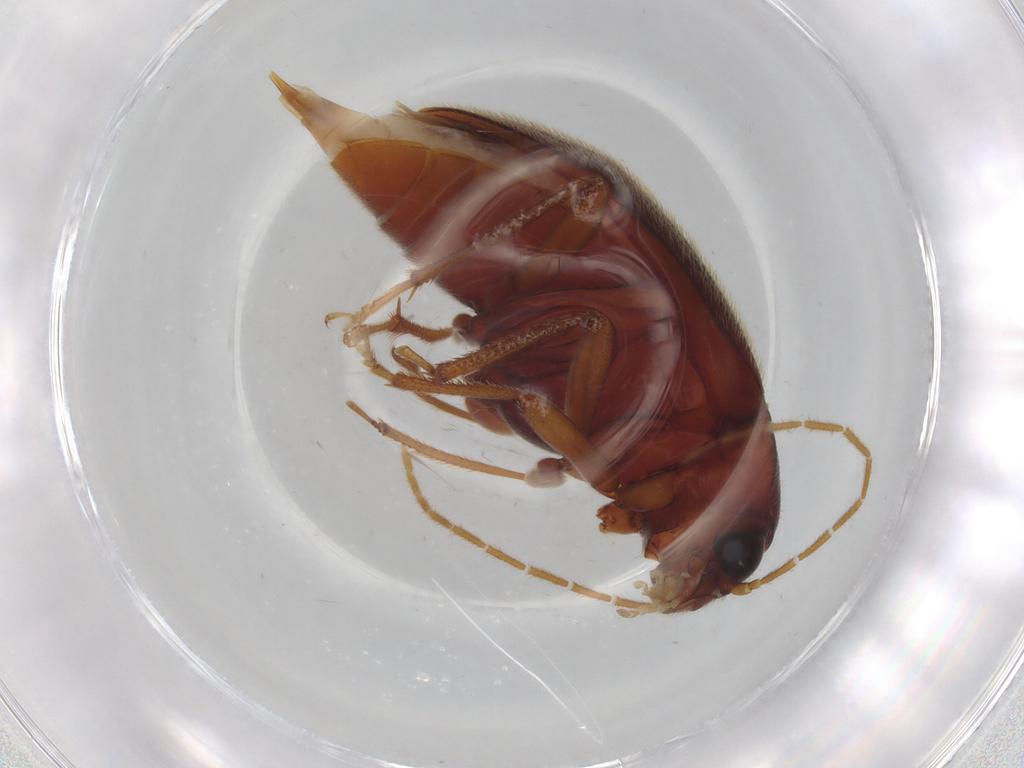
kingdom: Animalia
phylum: Arthropoda
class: Insecta
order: Coleoptera
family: Ptilodactylidae
